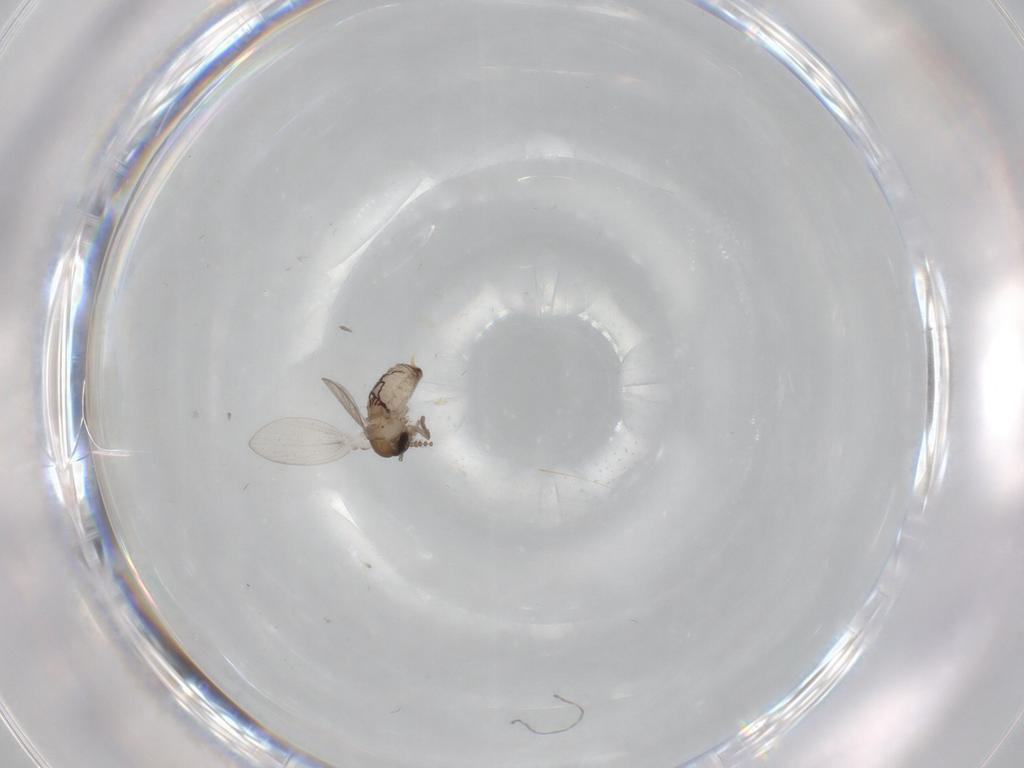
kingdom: Animalia
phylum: Arthropoda
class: Insecta
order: Diptera
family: Psychodidae
